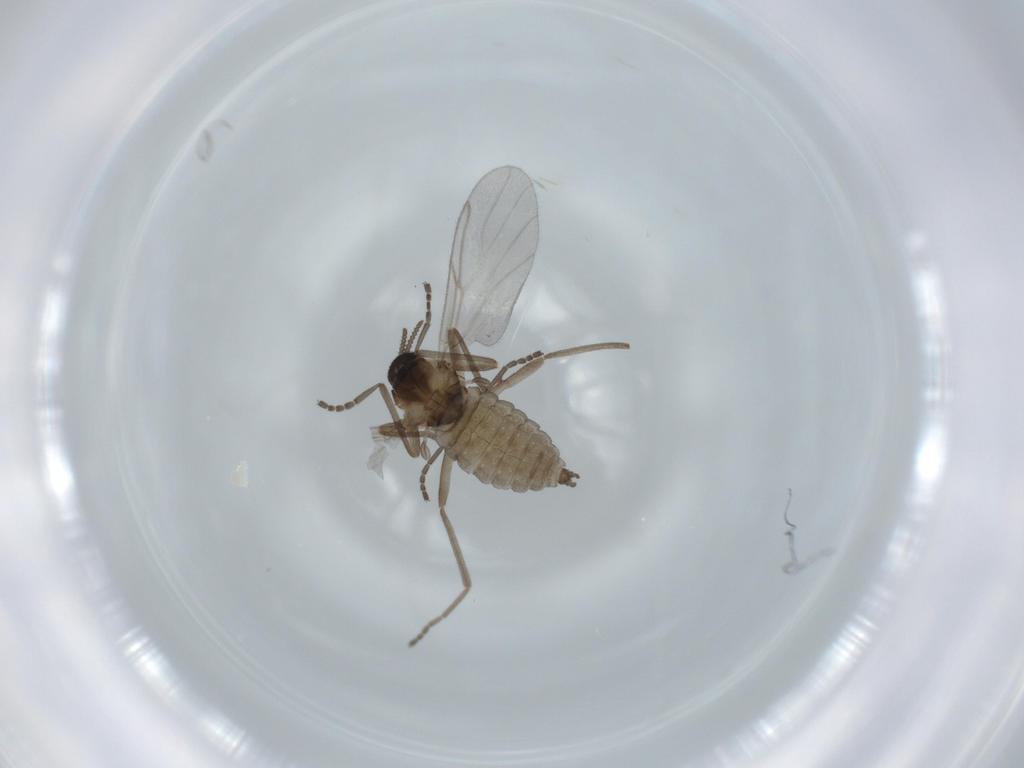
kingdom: Animalia
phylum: Arthropoda
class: Insecta
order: Diptera
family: Cecidomyiidae
